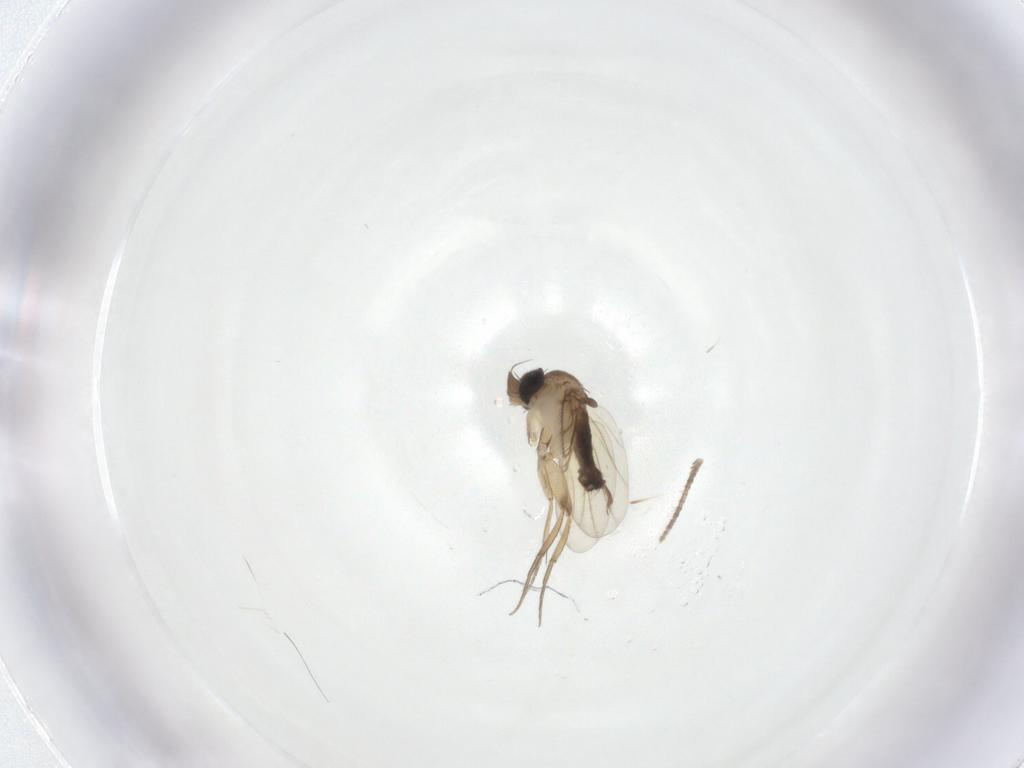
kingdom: Animalia
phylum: Arthropoda
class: Insecta
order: Diptera
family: Phoridae
